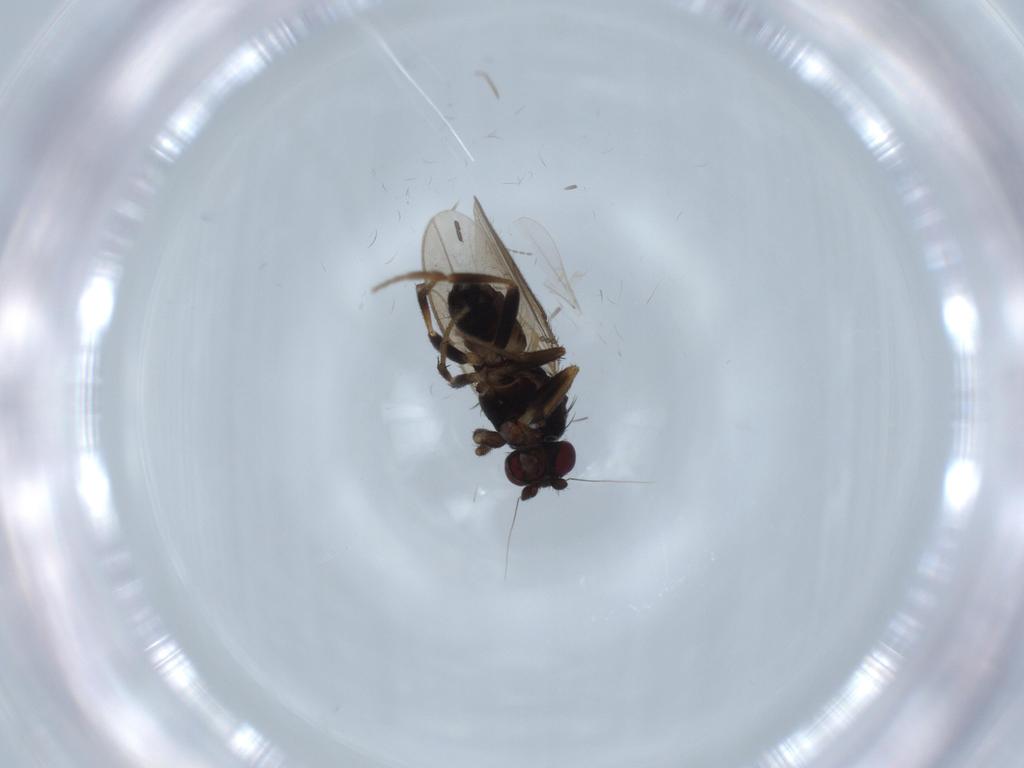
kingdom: Animalia
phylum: Arthropoda
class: Insecta
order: Diptera
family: Sphaeroceridae
